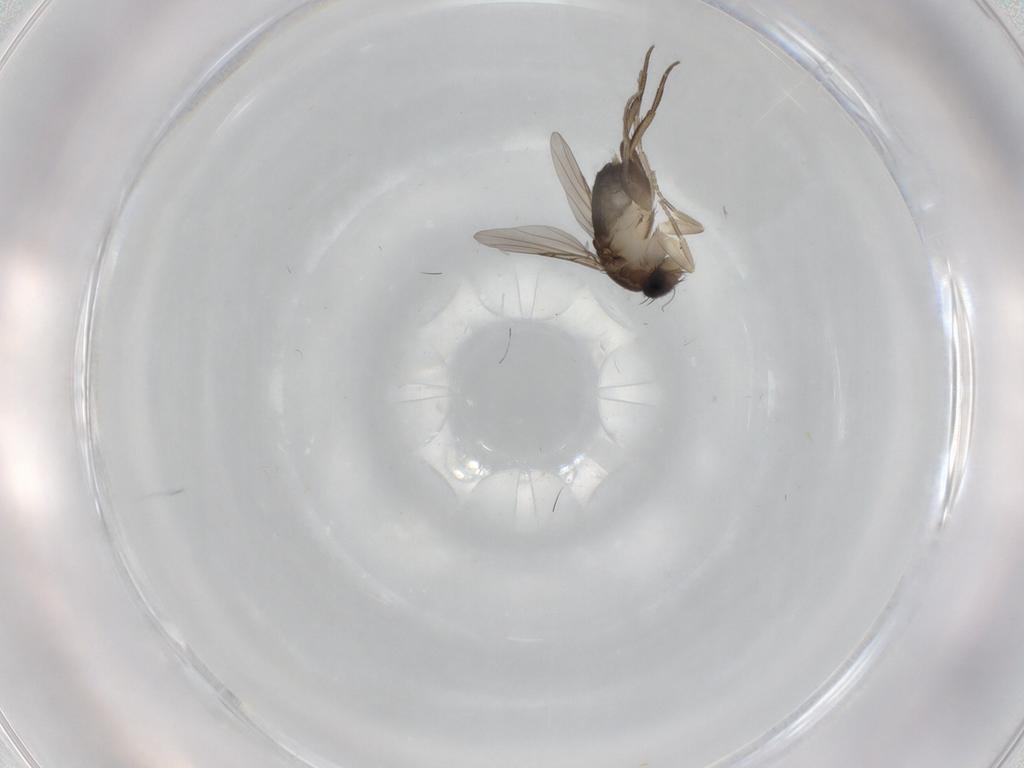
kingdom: Animalia
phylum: Arthropoda
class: Insecta
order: Diptera
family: Phoridae
